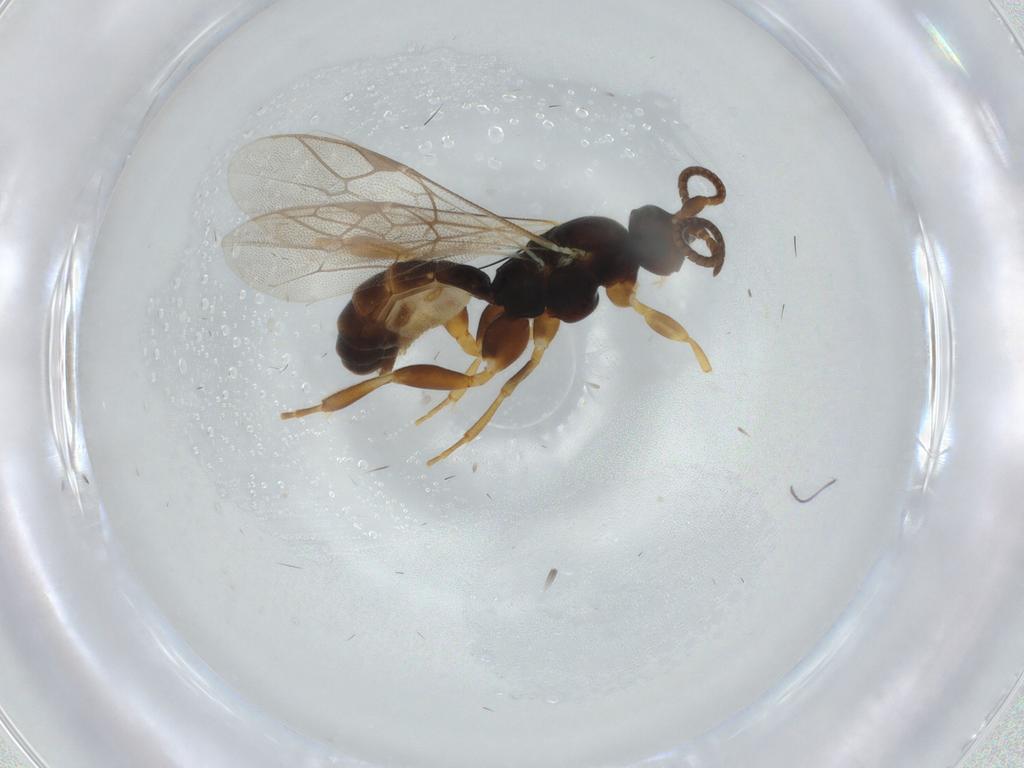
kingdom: Animalia
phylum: Arthropoda
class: Insecta
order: Hymenoptera
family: Ichneumonidae
